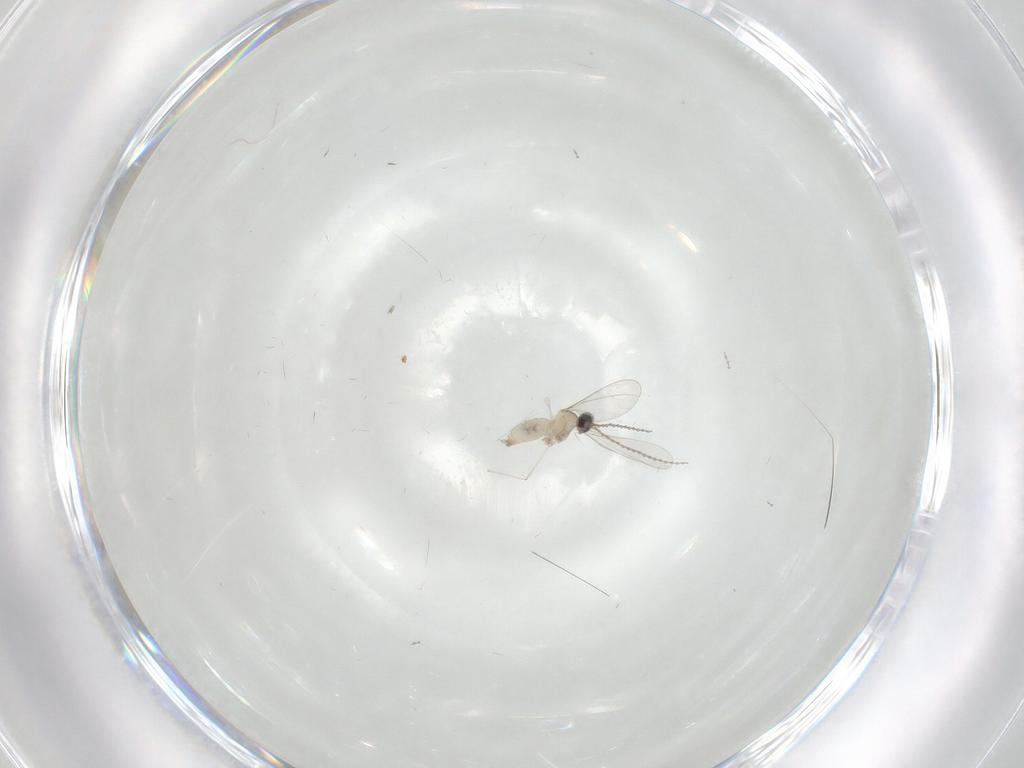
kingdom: Animalia
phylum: Arthropoda
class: Insecta
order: Diptera
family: Cecidomyiidae
